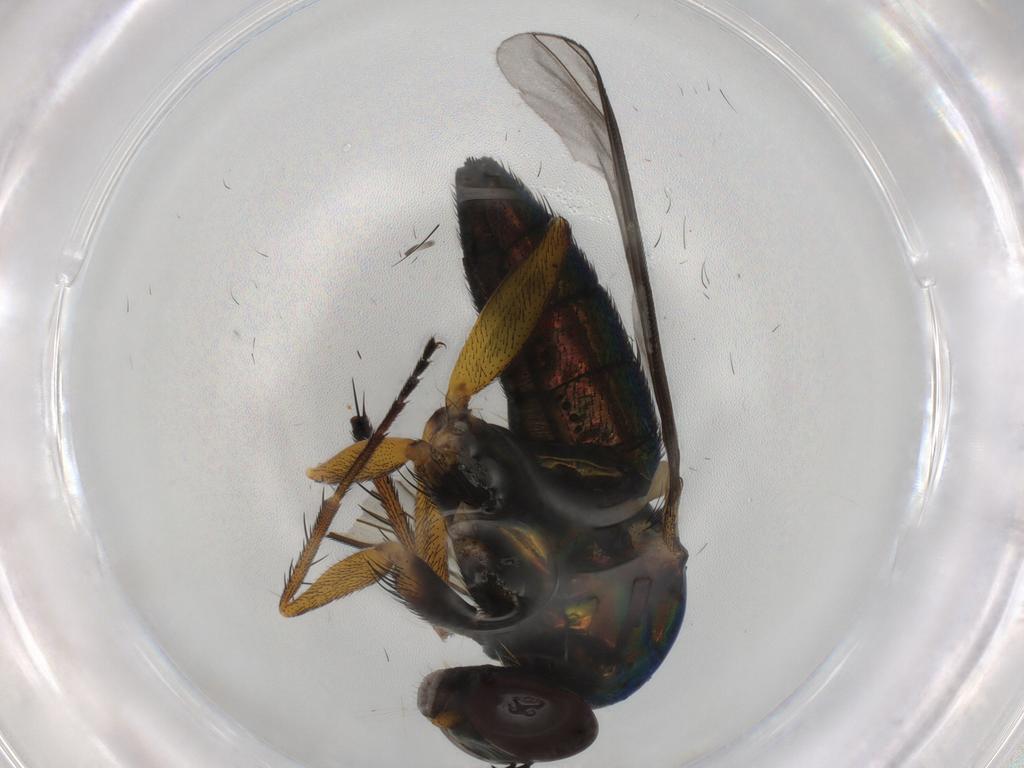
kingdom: Animalia
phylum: Arthropoda
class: Insecta
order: Diptera
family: Dolichopodidae
